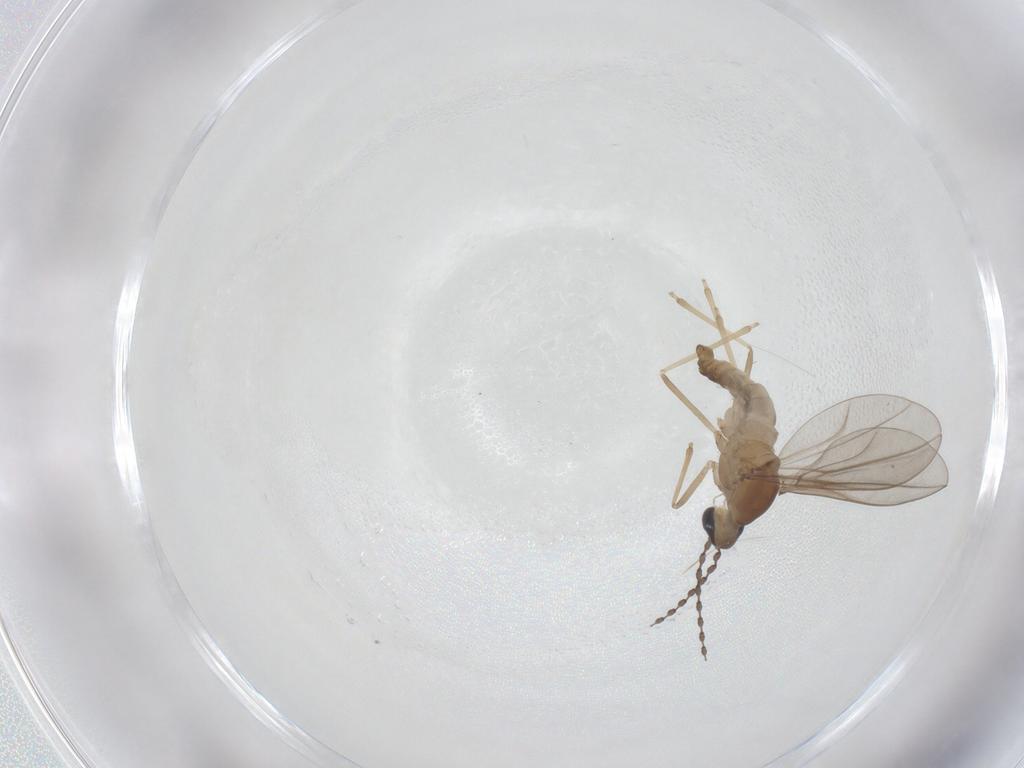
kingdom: Animalia
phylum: Arthropoda
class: Insecta
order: Diptera
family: Cecidomyiidae
